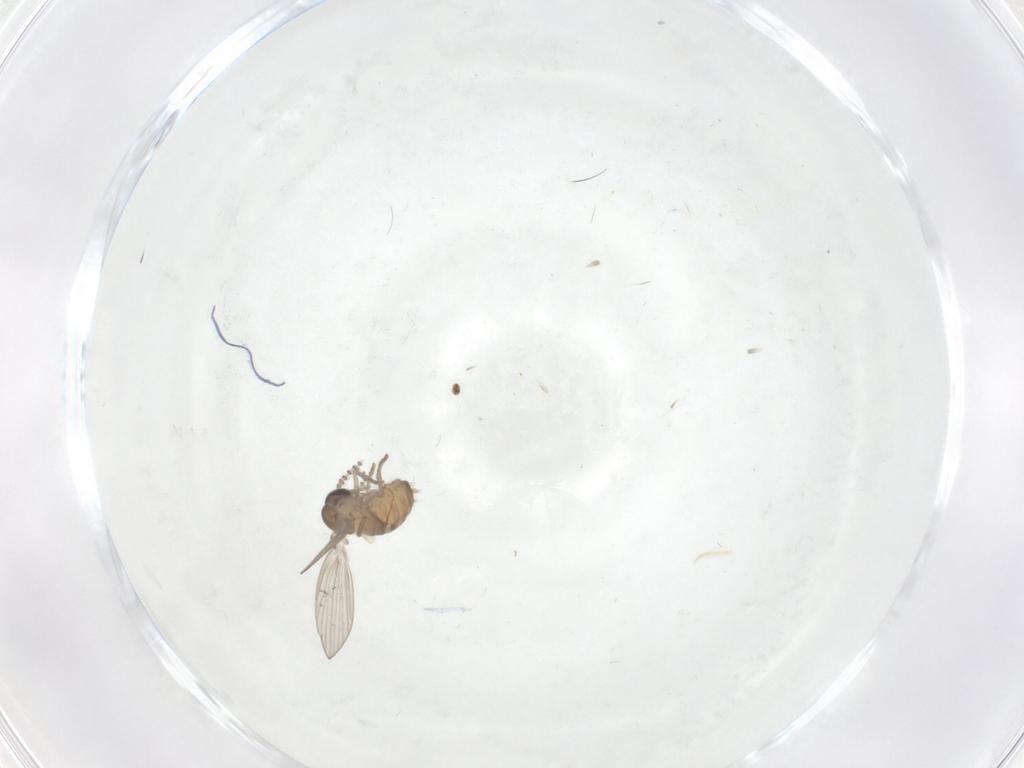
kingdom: Animalia
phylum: Arthropoda
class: Insecta
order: Diptera
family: Psychodidae
